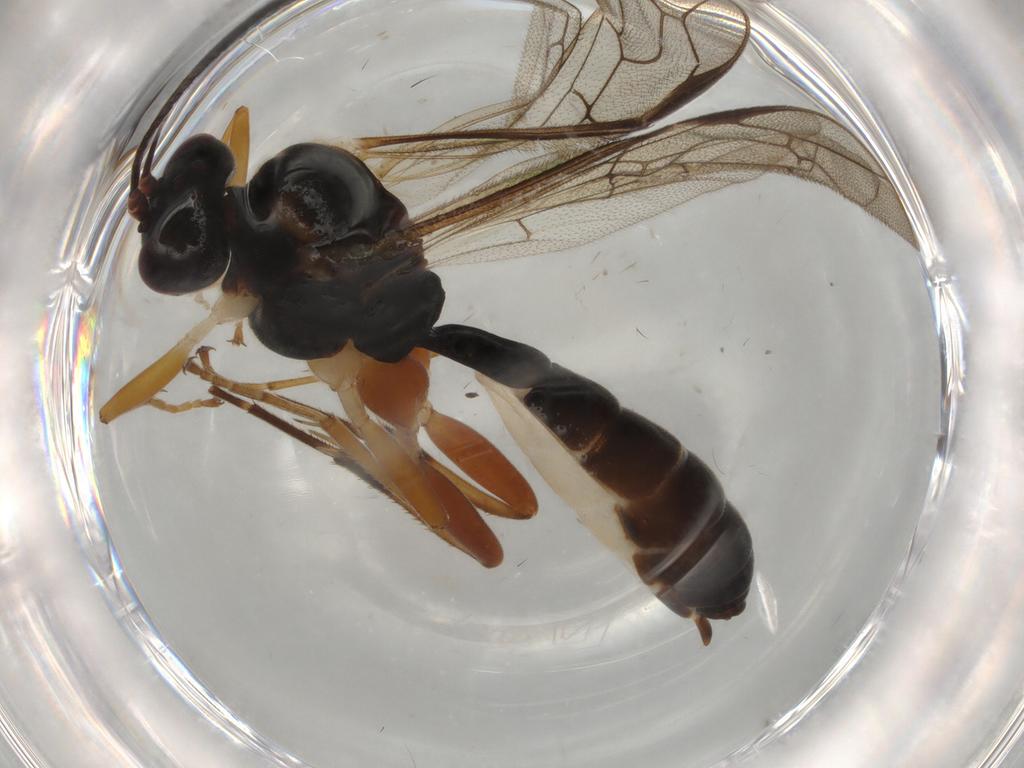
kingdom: Animalia
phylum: Arthropoda
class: Insecta
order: Hymenoptera
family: Ichneumonidae
